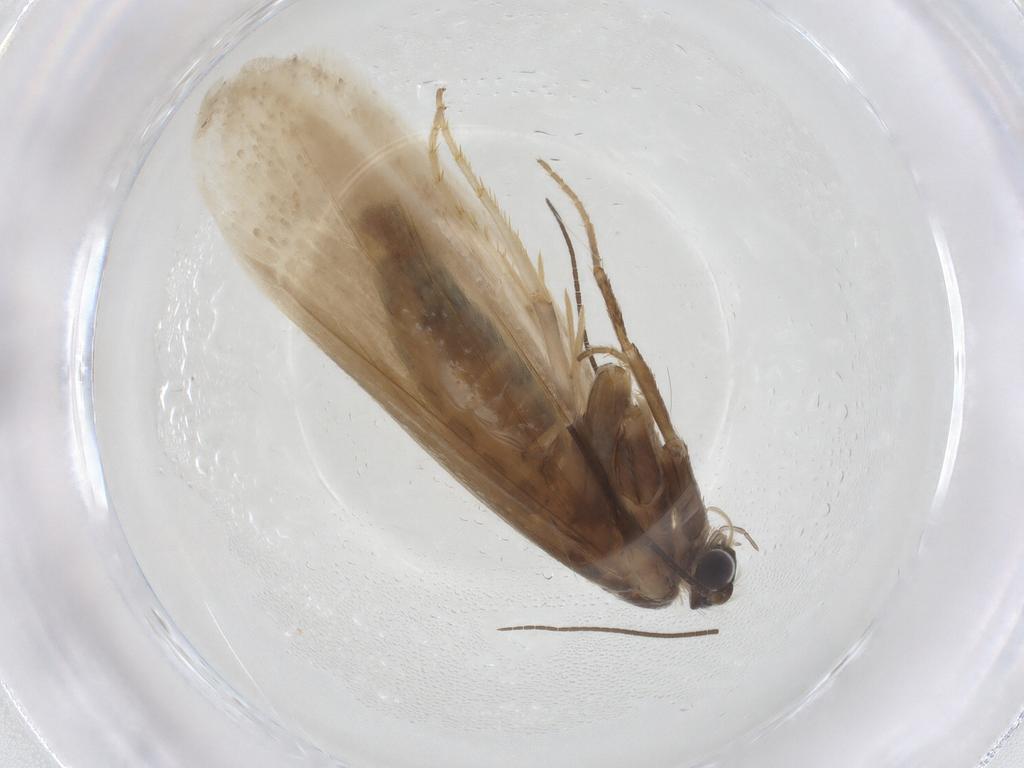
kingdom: Animalia
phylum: Arthropoda
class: Insecta
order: Lepidoptera
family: Tridentaformidae
